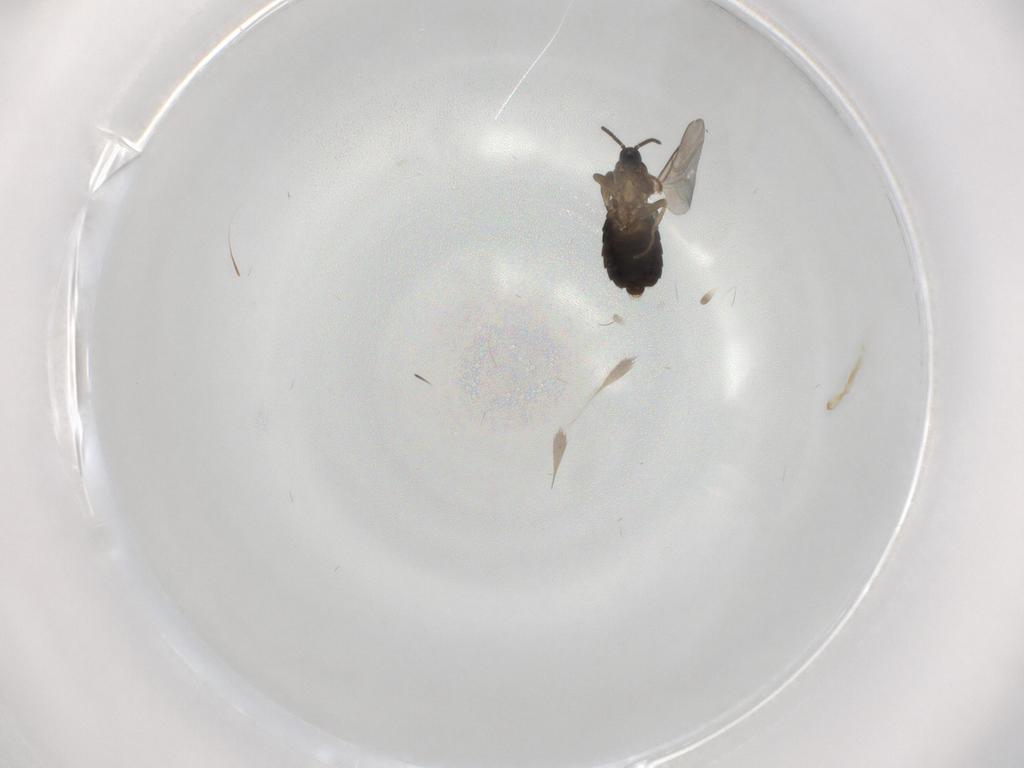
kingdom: Animalia
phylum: Arthropoda
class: Insecta
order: Diptera
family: Scatopsidae
